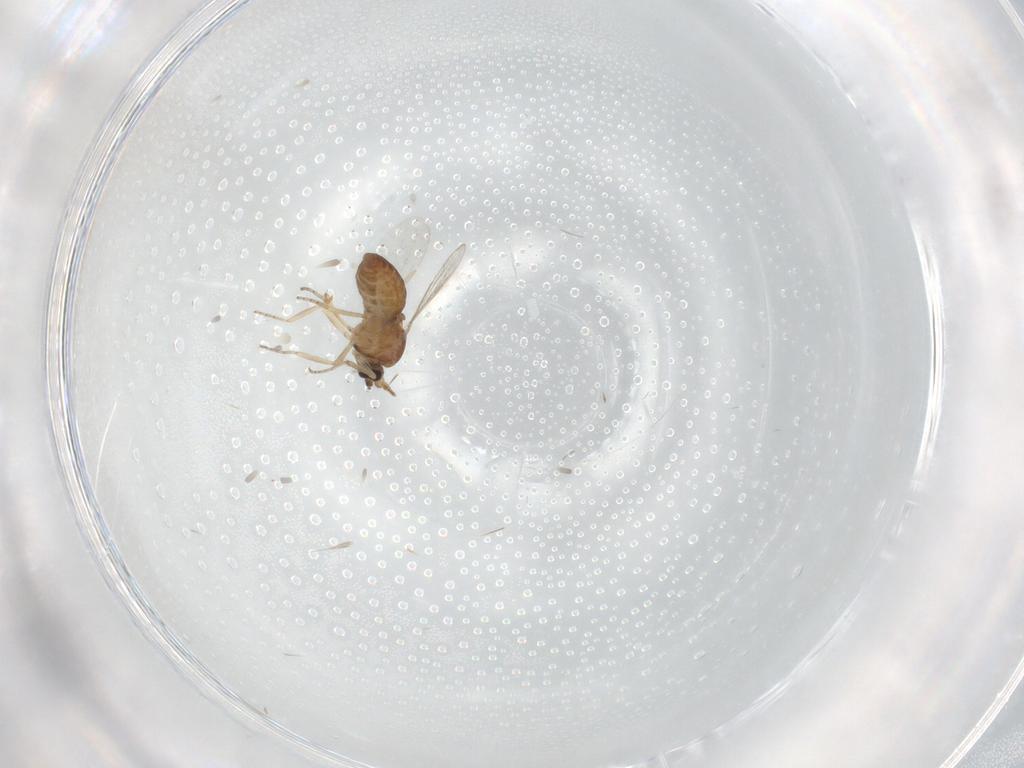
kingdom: Animalia
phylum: Arthropoda
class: Insecta
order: Diptera
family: Ceratopogonidae
